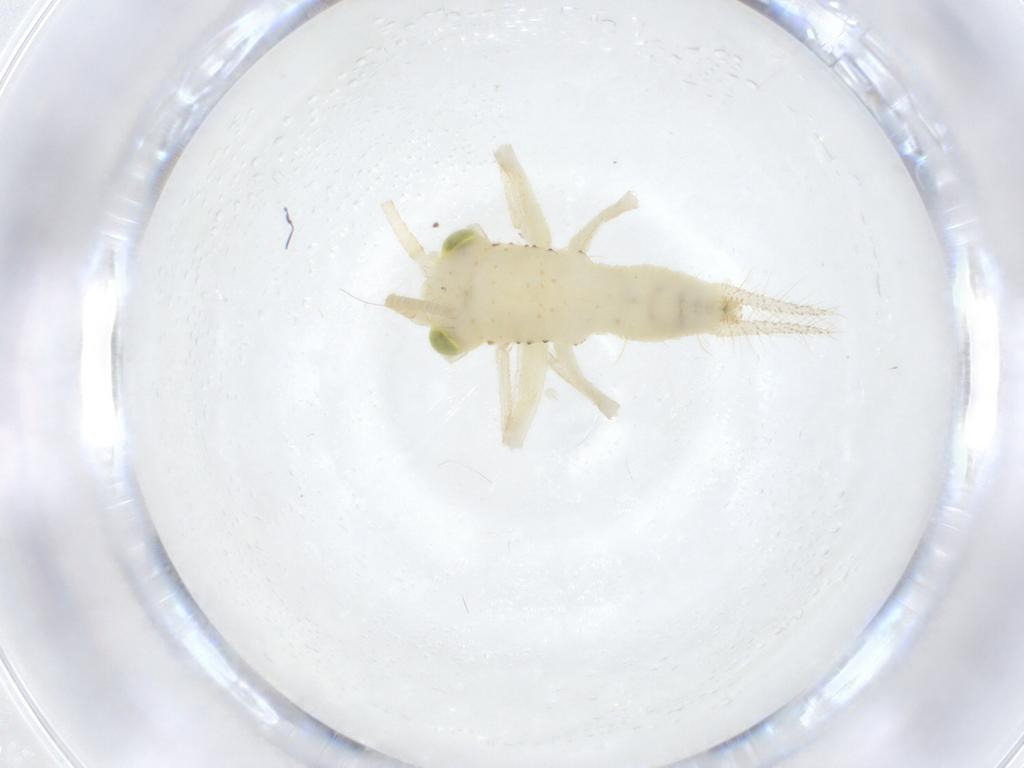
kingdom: Animalia
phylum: Arthropoda
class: Insecta
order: Orthoptera
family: Trigonidiidae
